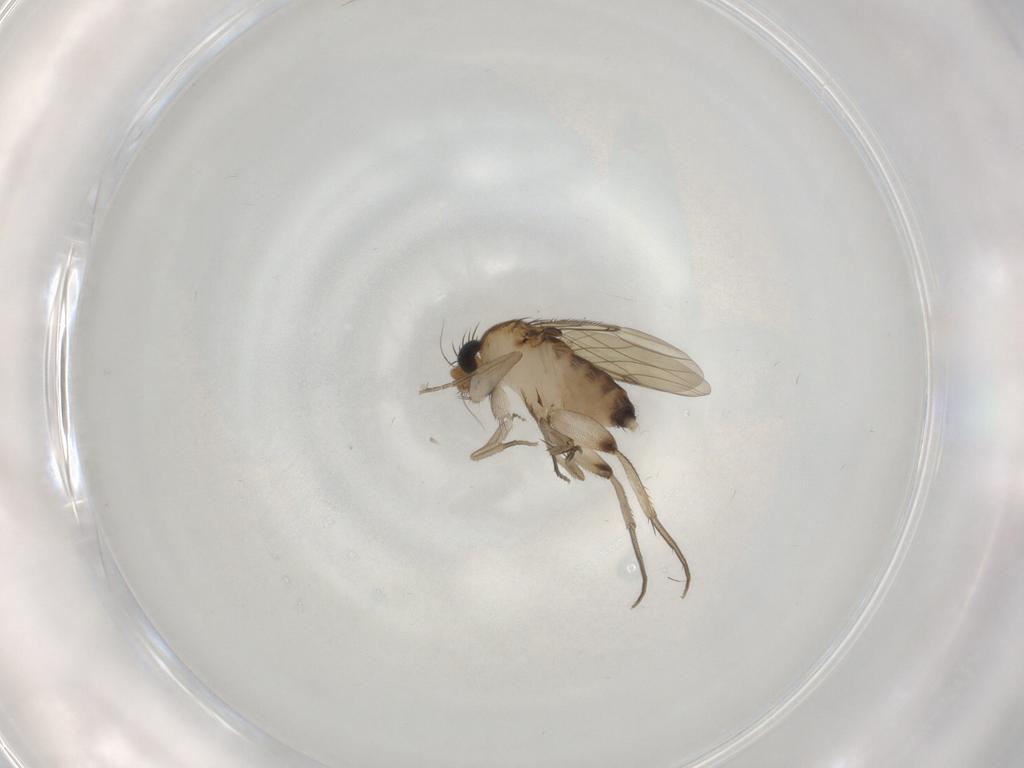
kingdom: Animalia
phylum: Arthropoda
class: Insecta
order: Diptera
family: Phoridae
